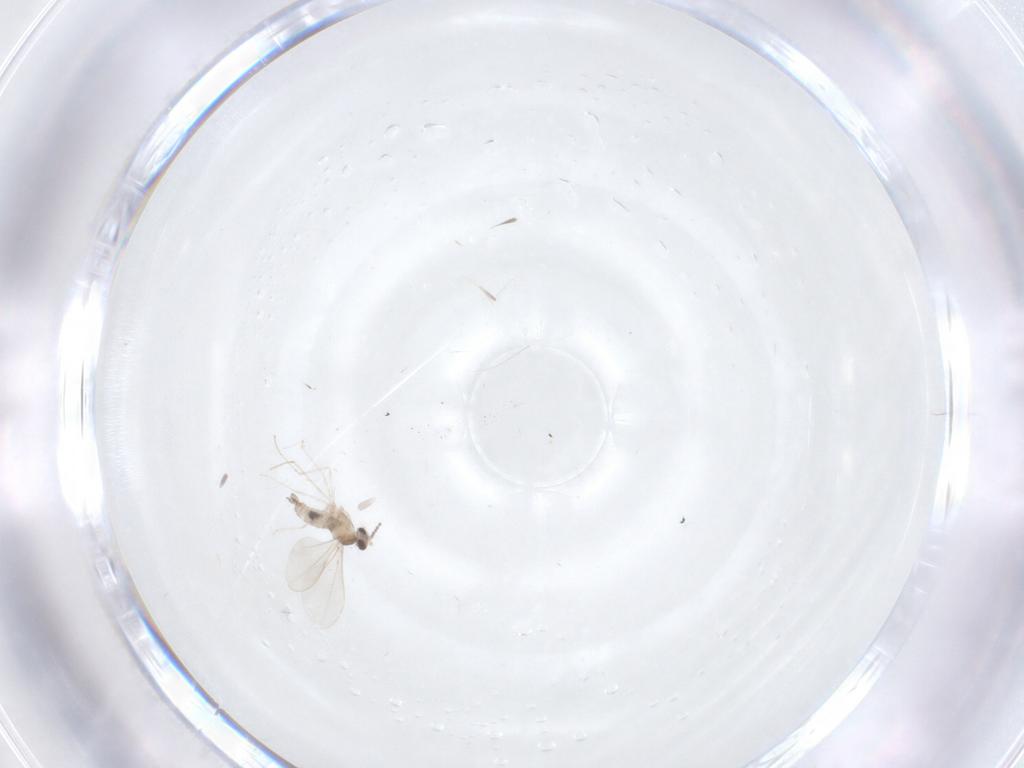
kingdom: Animalia
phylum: Arthropoda
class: Insecta
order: Diptera
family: Cecidomyiidae
